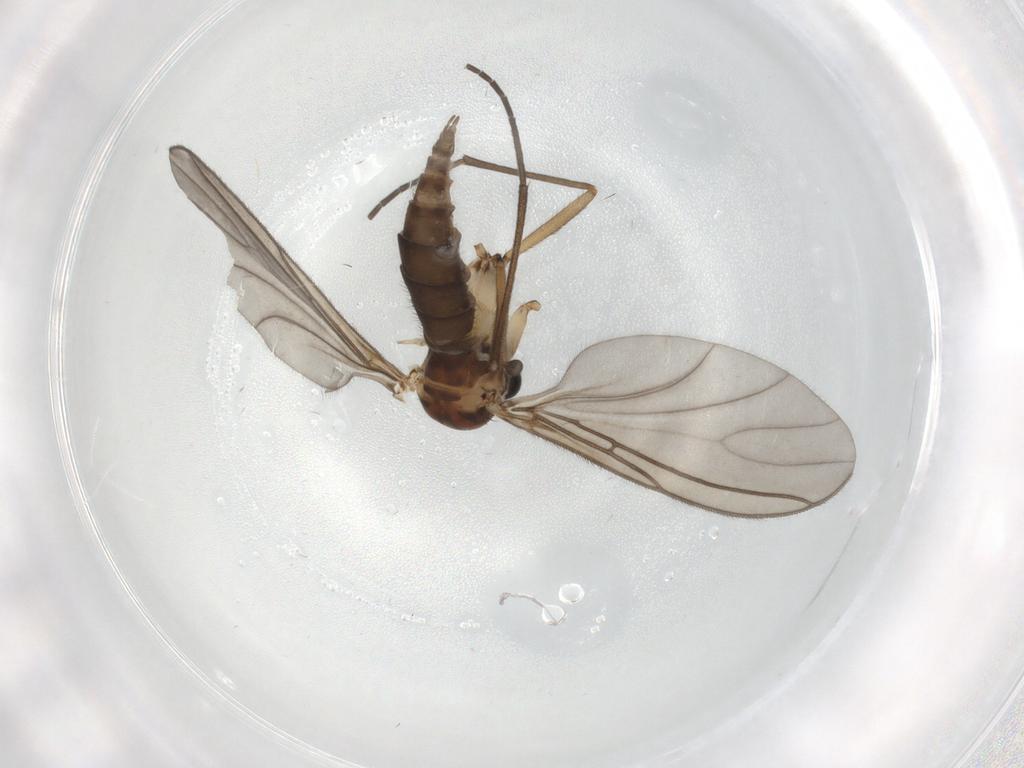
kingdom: Animalia
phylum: Arthropoda
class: Insecta
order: Diptera
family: Sciaridae
